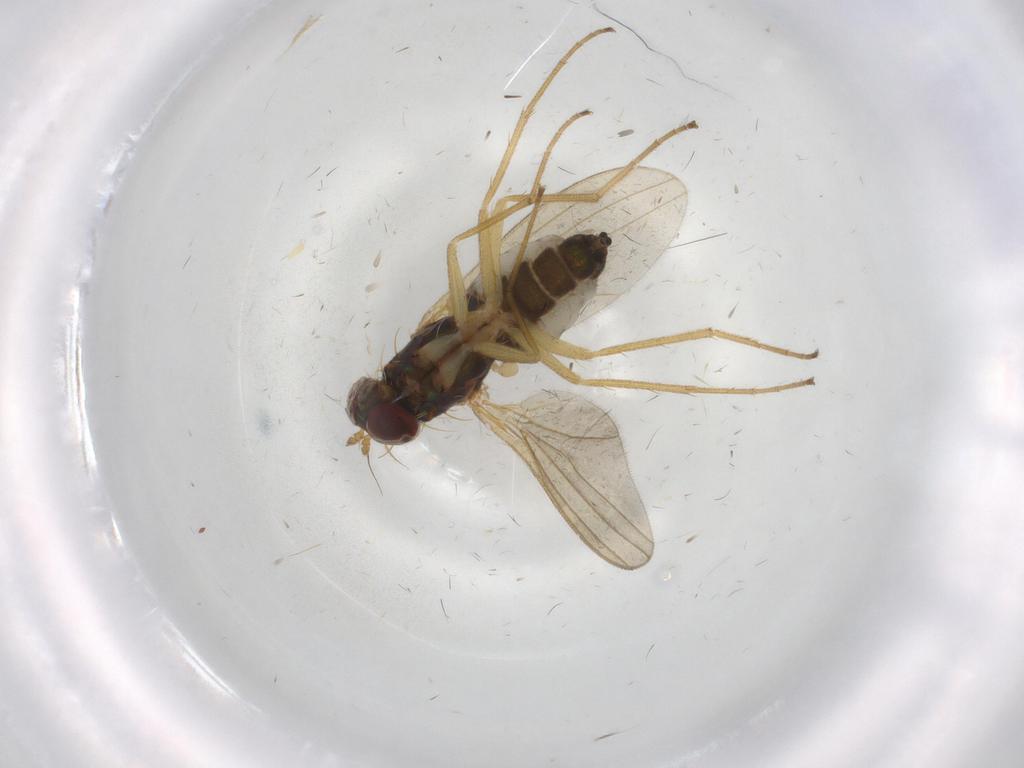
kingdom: Animalia
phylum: Arthropoda
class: Insecta
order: Diptera
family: Dolichopodidae
